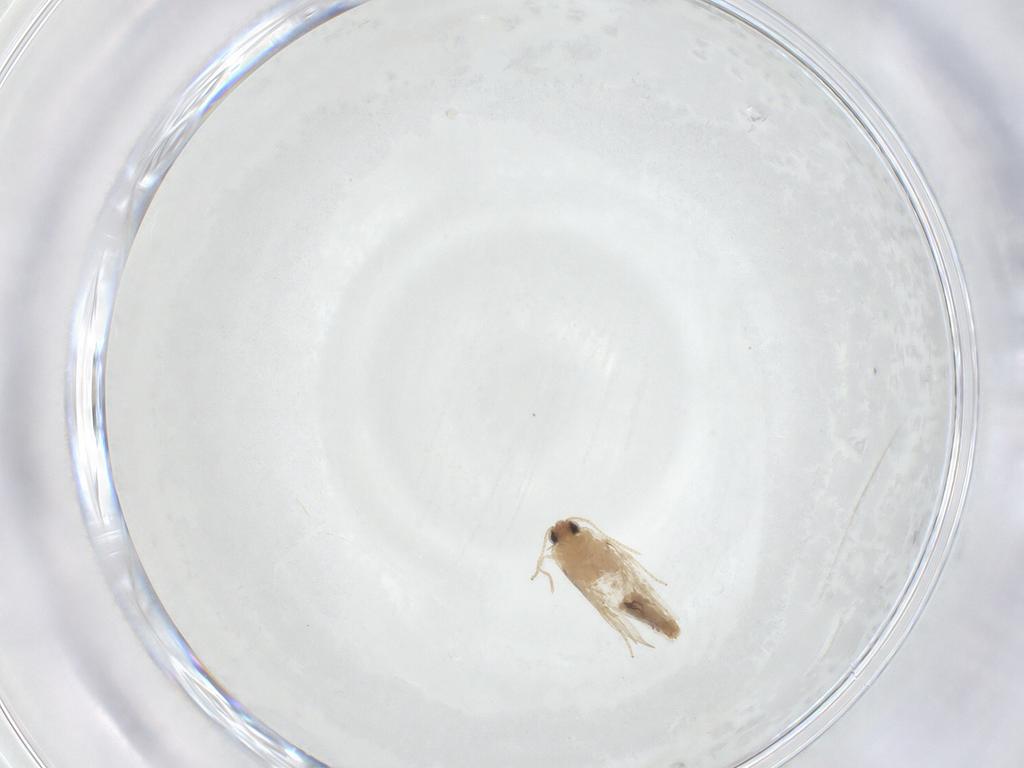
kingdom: Animalia
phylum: Arthropoda
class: Insecta
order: Lepidoptera
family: Nepticulidae
